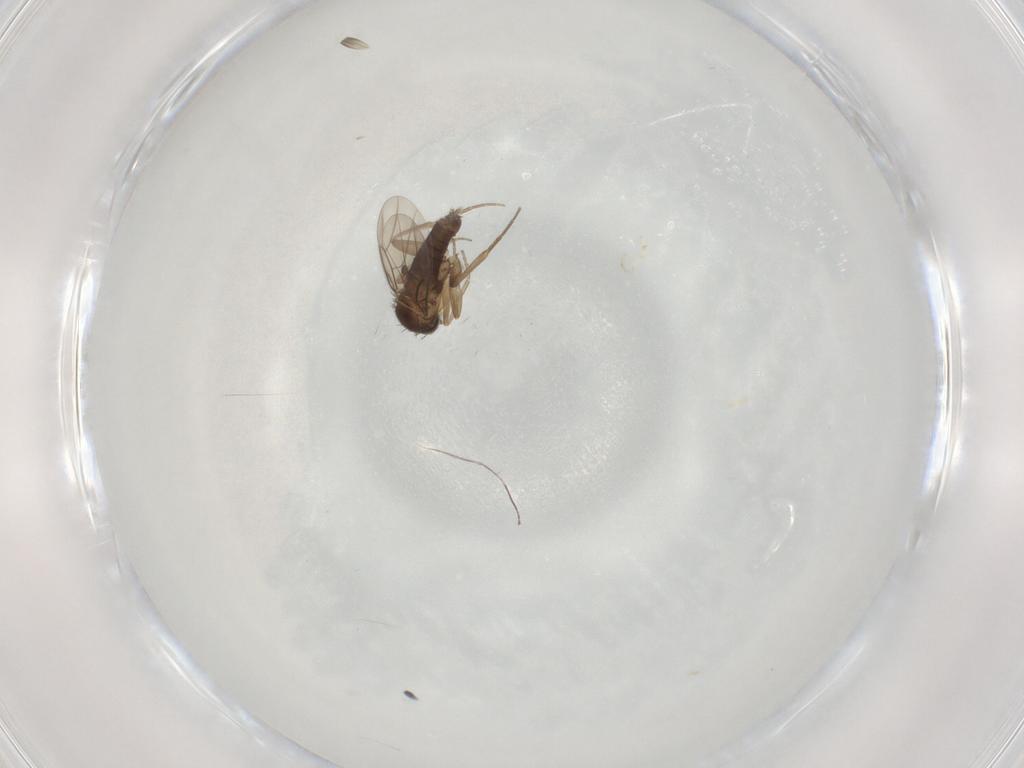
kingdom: Animalia
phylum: Arthropoda
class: Insecta
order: Diptera
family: Phoridae
